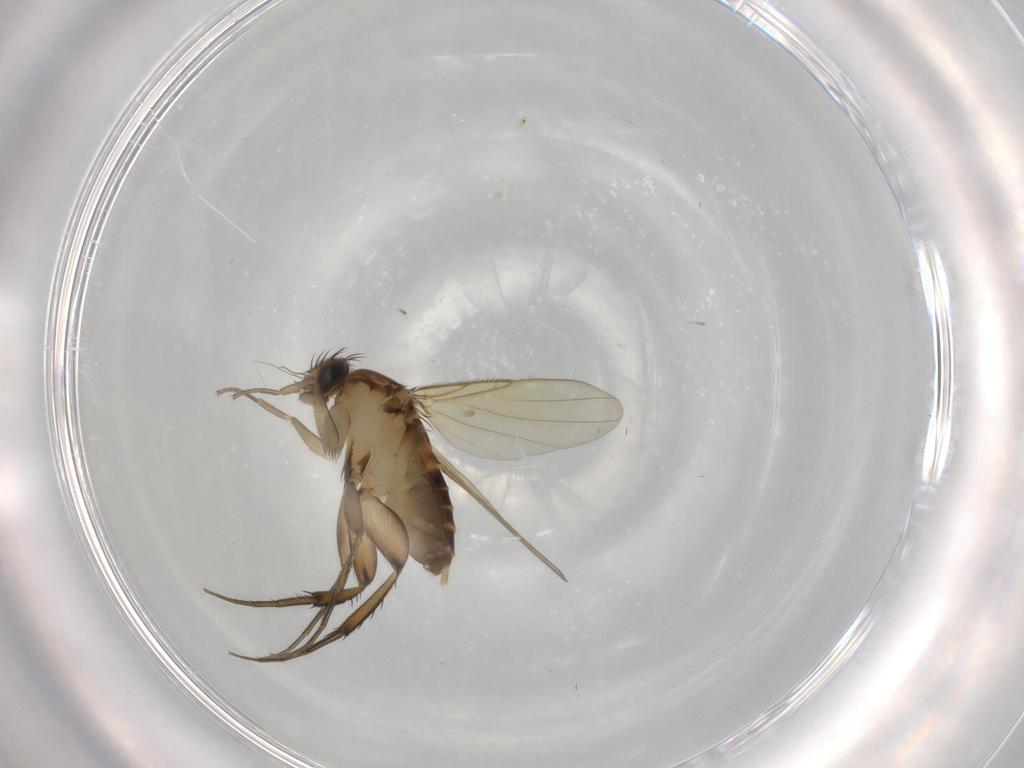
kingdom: Animalia
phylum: Arthropoda
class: Insecta
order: Diptera
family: Phoridae
